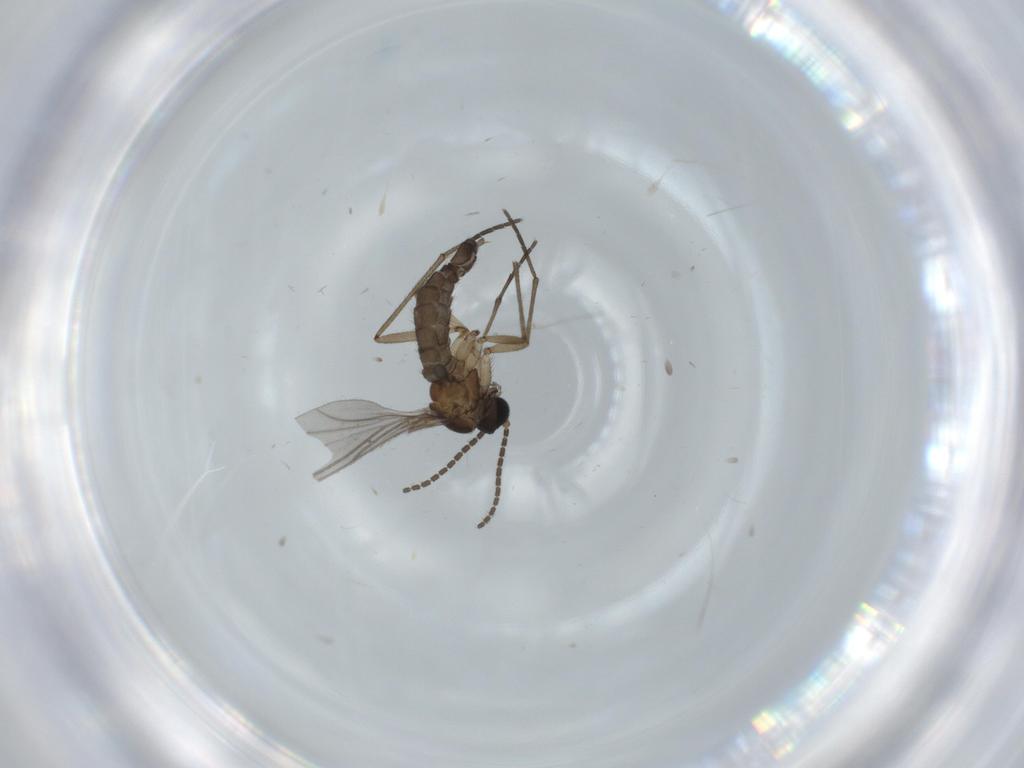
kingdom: Animalia
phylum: Arthropoda
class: Insecta
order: Diptera
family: Sciaridae
